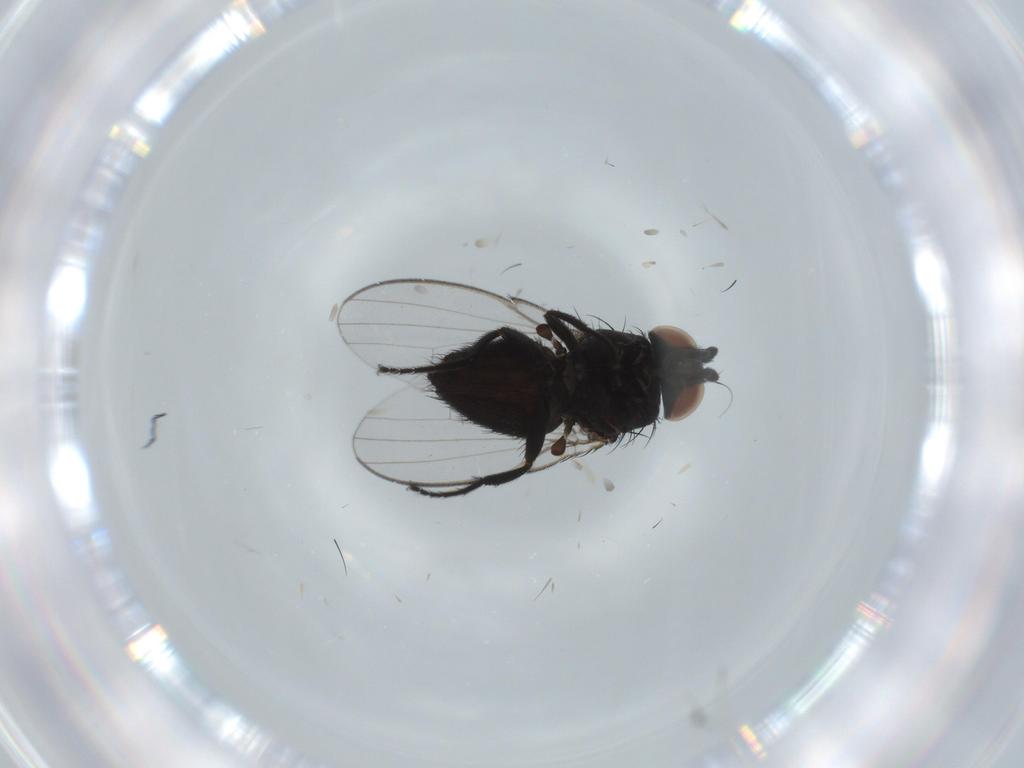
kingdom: Animalia
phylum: Arthropoda
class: Insecta
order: Diptera
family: Milichiidae
